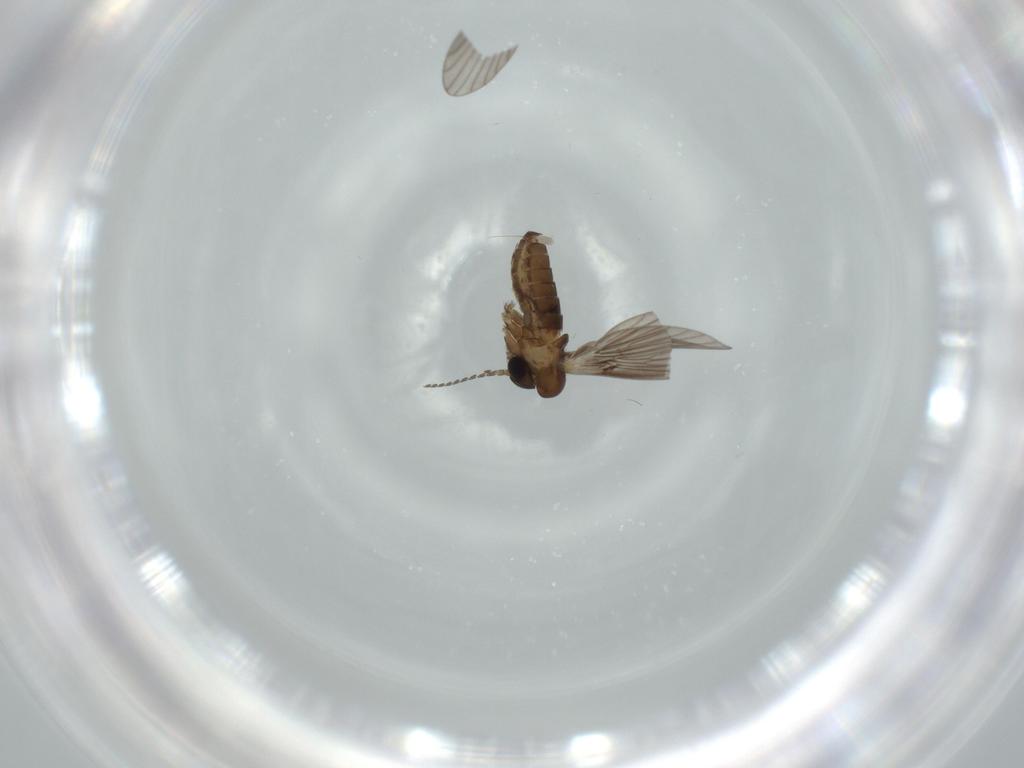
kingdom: Animalia
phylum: Arthropoda
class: Insecta
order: Diptera
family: Psychodidae
